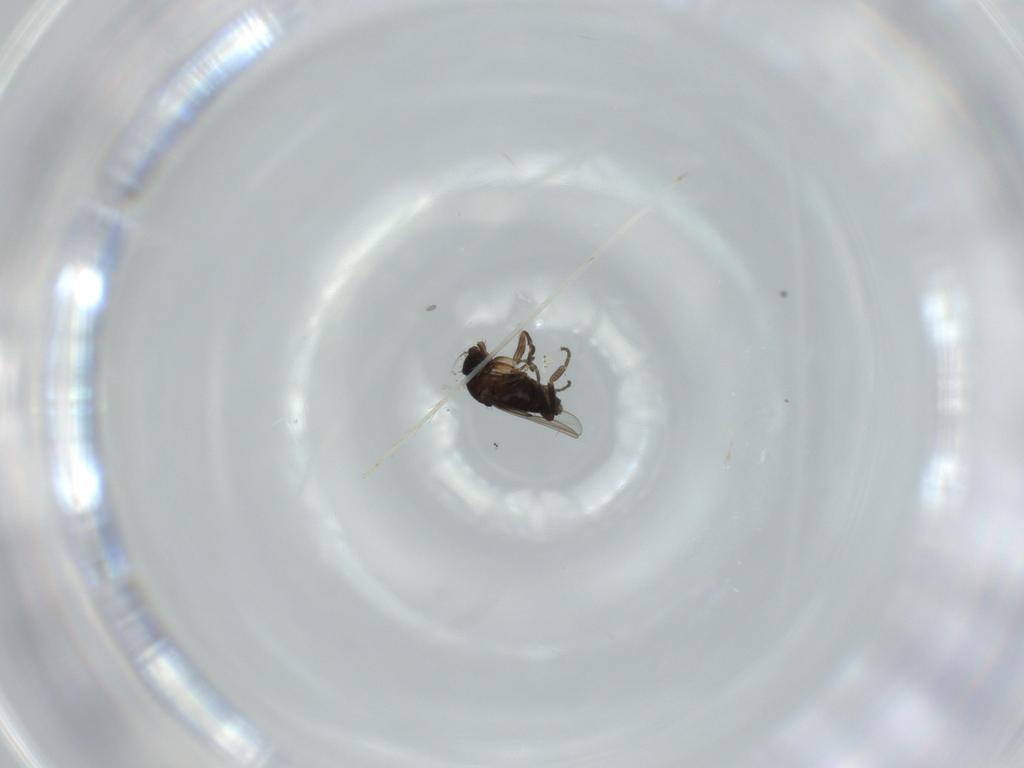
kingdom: Animalia
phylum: Arthropoda
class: Insecta
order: Diptera
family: Phoridae
